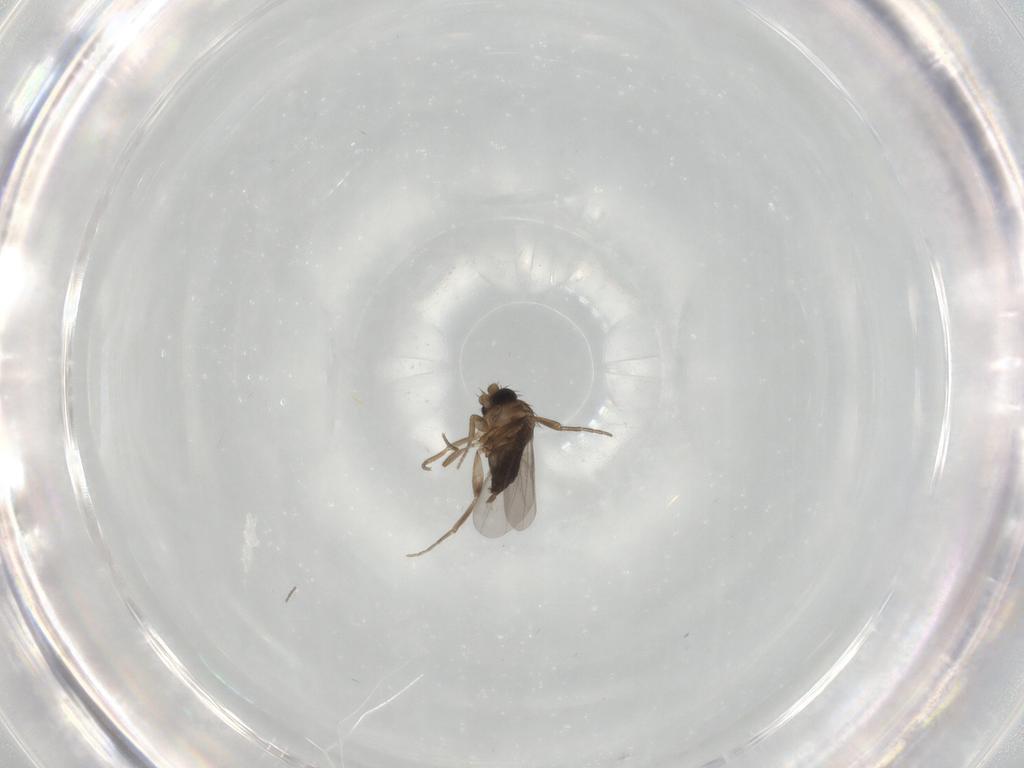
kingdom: Animalia
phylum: Arthropoda
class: Insecta
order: Diptera
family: Phoridae
